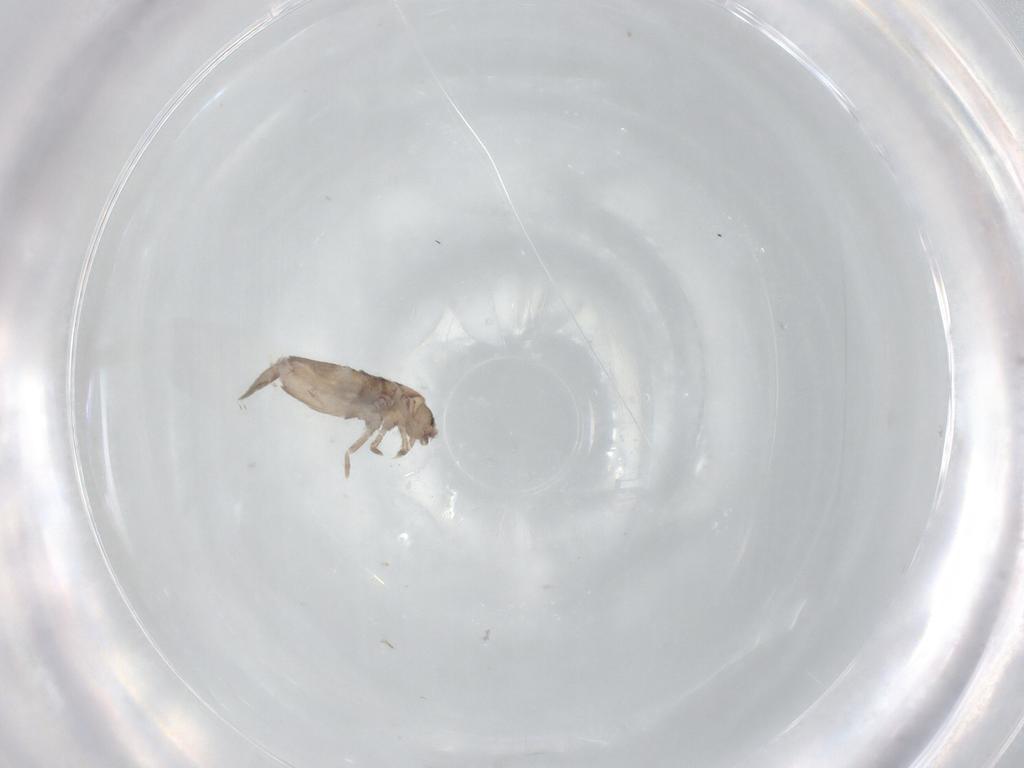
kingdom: Animalia
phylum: Arthropoda
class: Collembola
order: Entomobryomorpha
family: Entomobryidae
